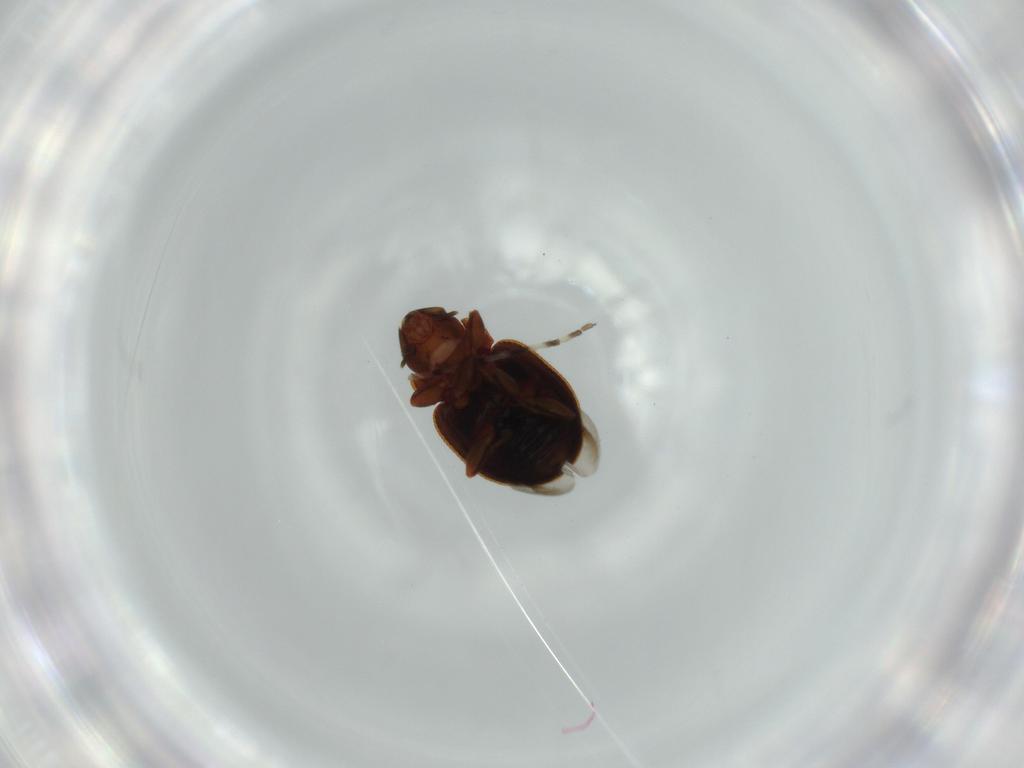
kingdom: Animalia
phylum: Arthropoda
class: Insecta
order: Coleoptera
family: Coccinellidae
